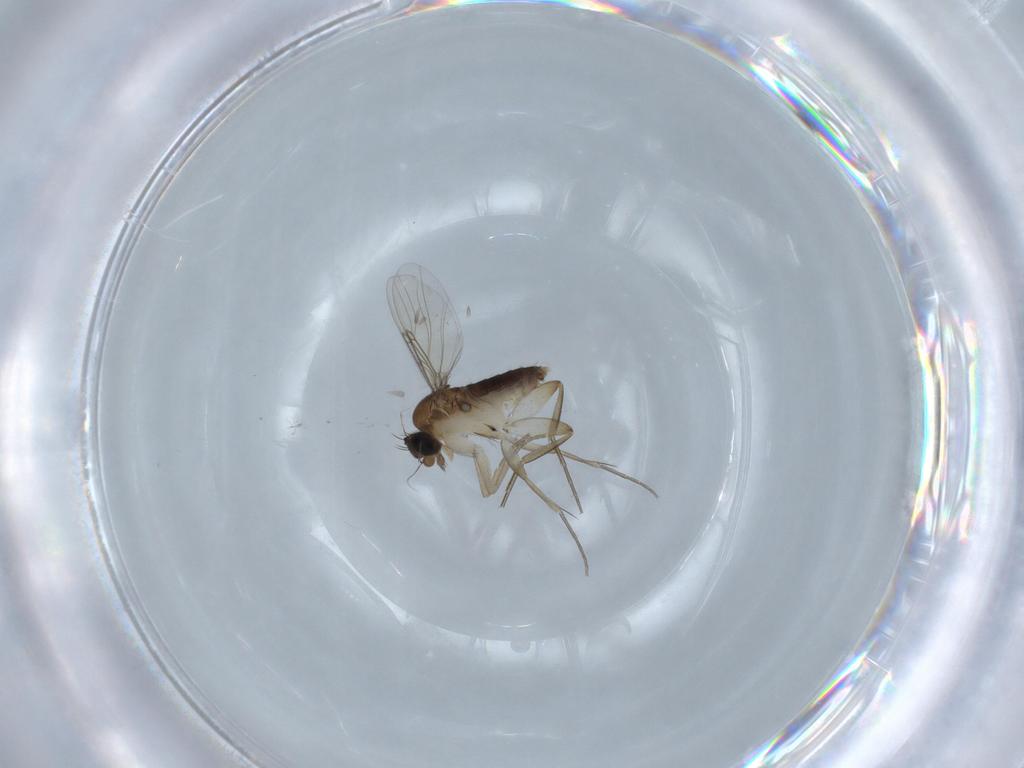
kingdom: Animalia
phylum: Arthropoda
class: Insecta
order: Diptera
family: Phoridae
